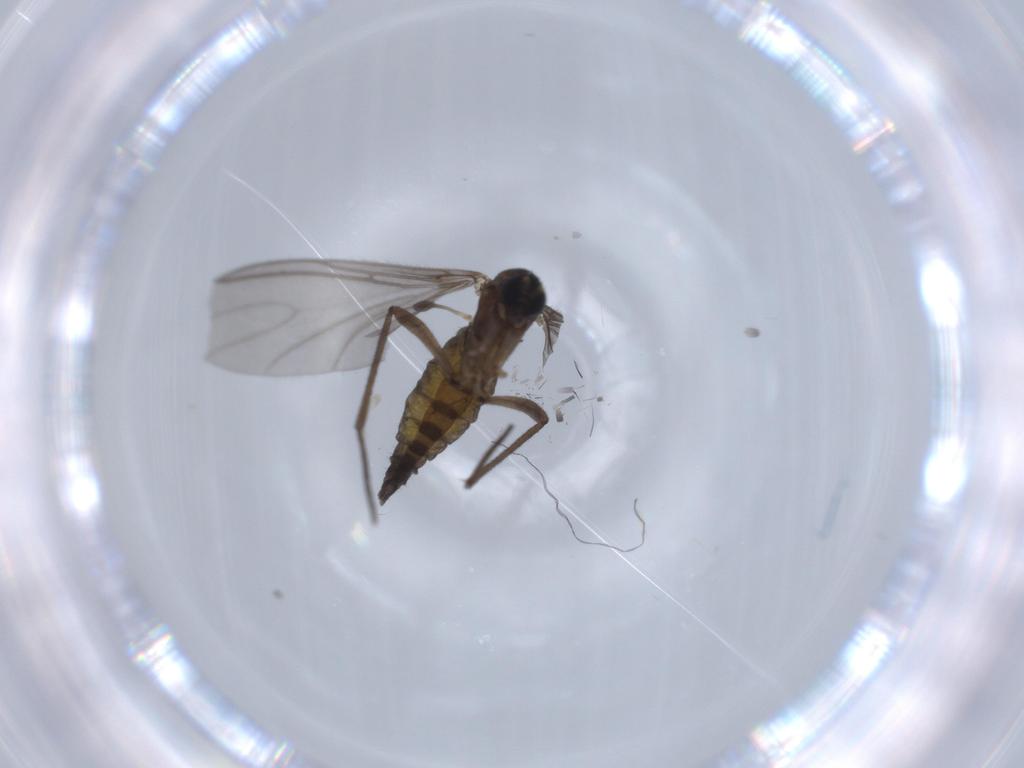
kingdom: Animalia
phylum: Arthropoda
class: Insecta
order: Diptera
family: Sciaridae
